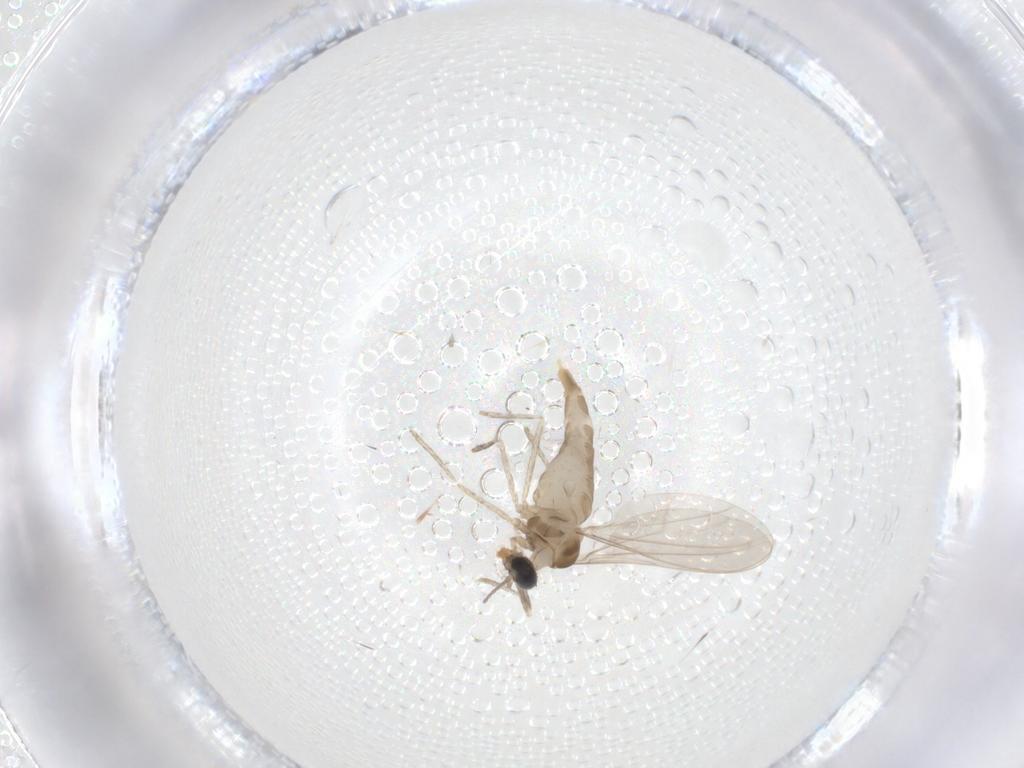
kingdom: Animalia
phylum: Arthropoda
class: Insecta
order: Diptera
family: Cecidomyiidae
